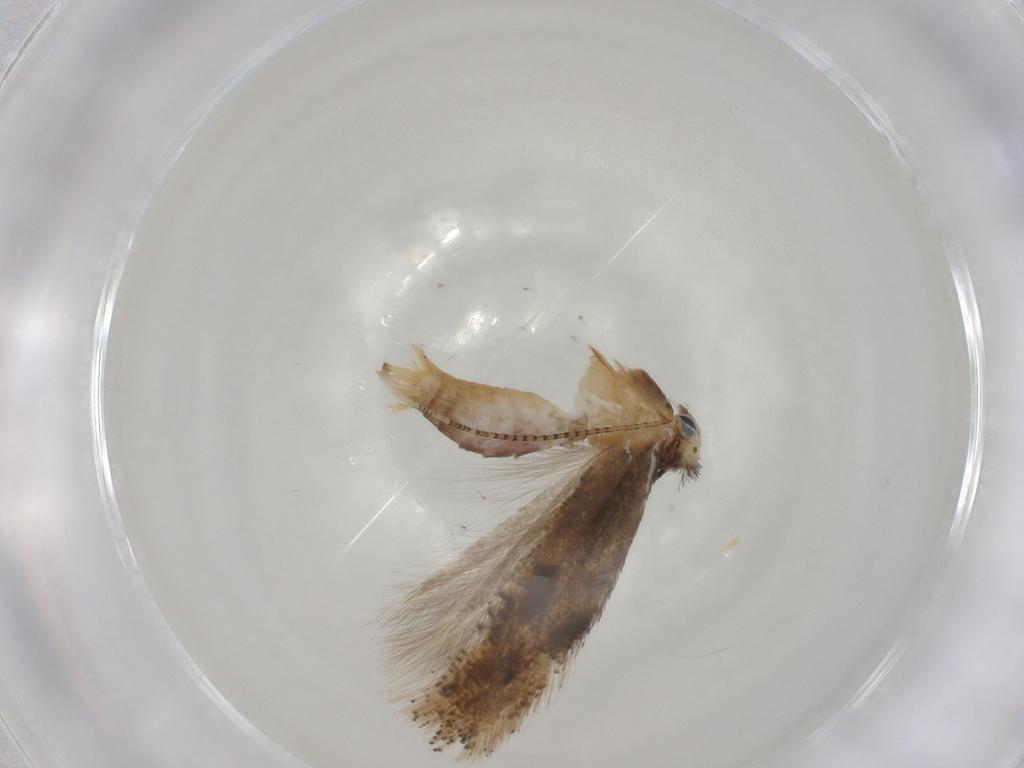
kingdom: Animalia
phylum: Arthropoda
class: Insecta
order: Lepidoptera
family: Bucculatricidae
